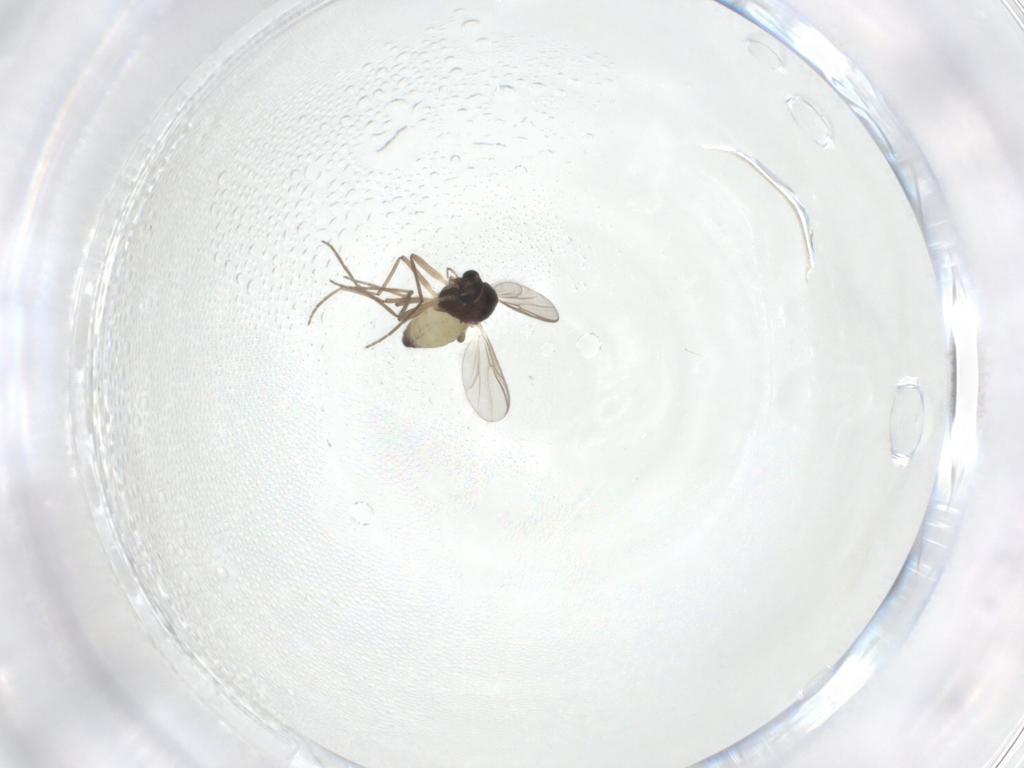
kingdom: Animalia
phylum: Arthropoda
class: Insecta
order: Diptera
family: Chironomidae
